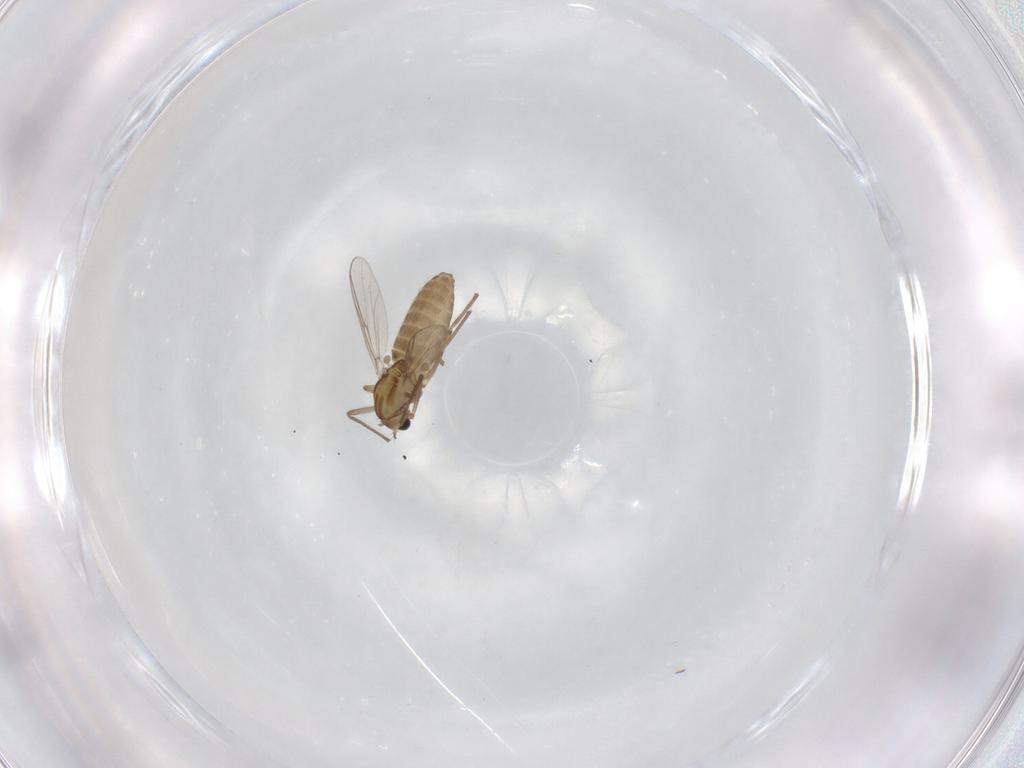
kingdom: Animalia
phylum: Arthropoda
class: Insecta
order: Diptera
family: Chironomidae
